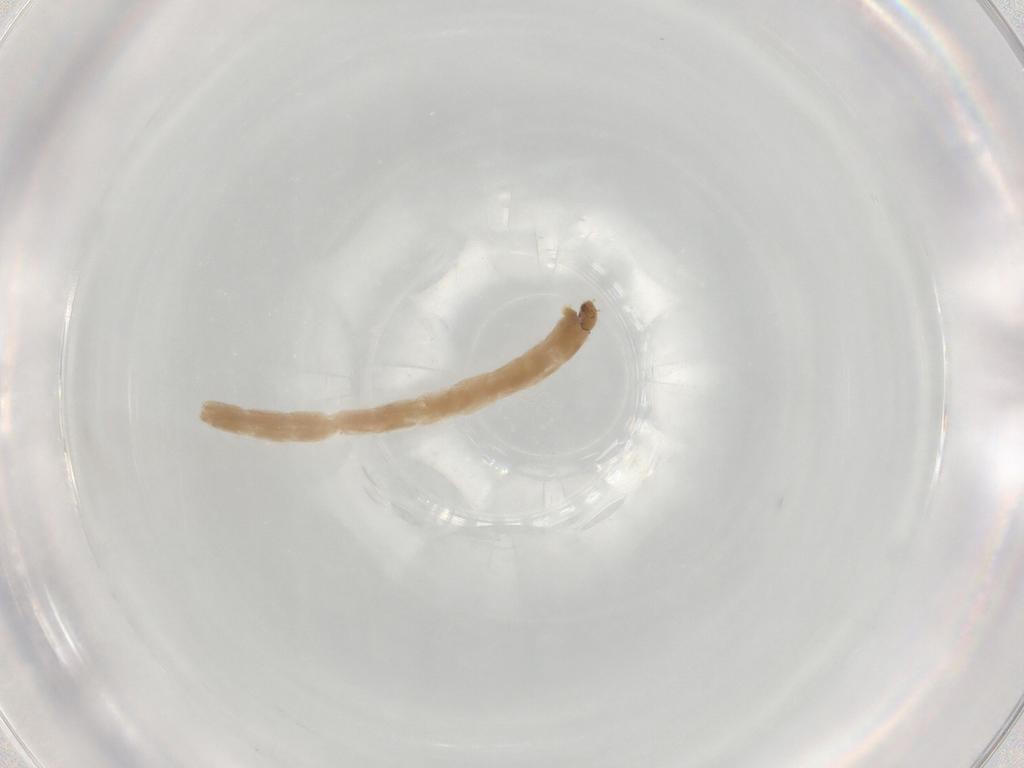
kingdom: Animalia
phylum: Arthropoda
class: Insecta
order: Diptera
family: Chironomidae
